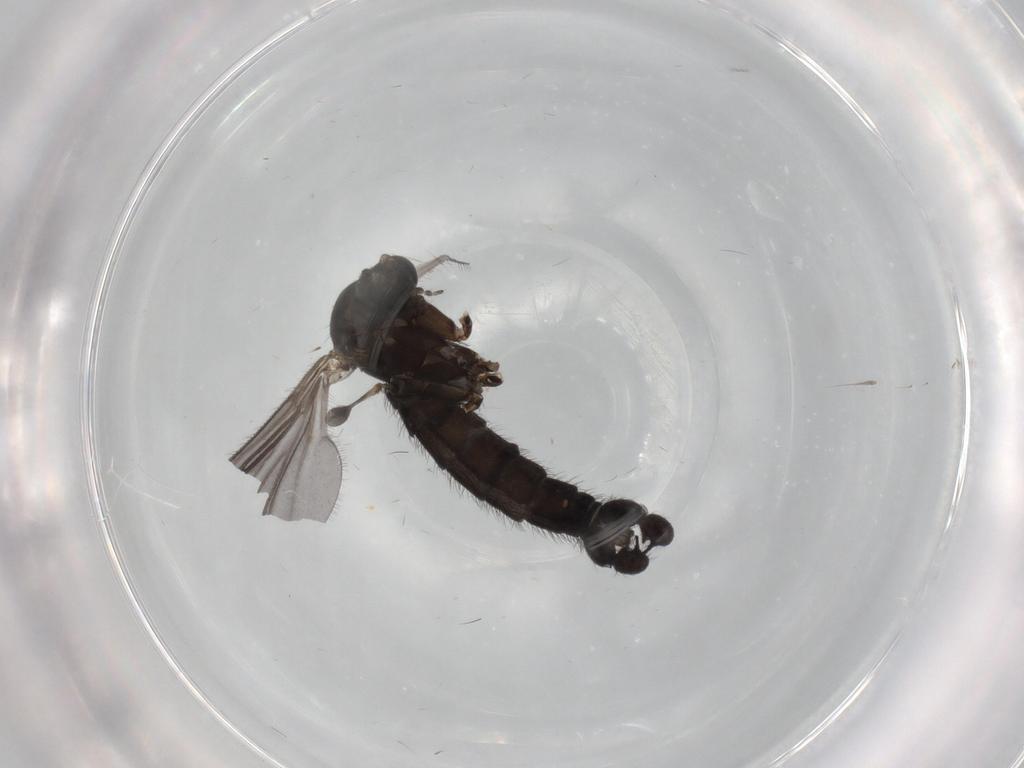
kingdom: Animalia
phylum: Arthropoda
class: Insecta
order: Diptera
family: Sciaridae
